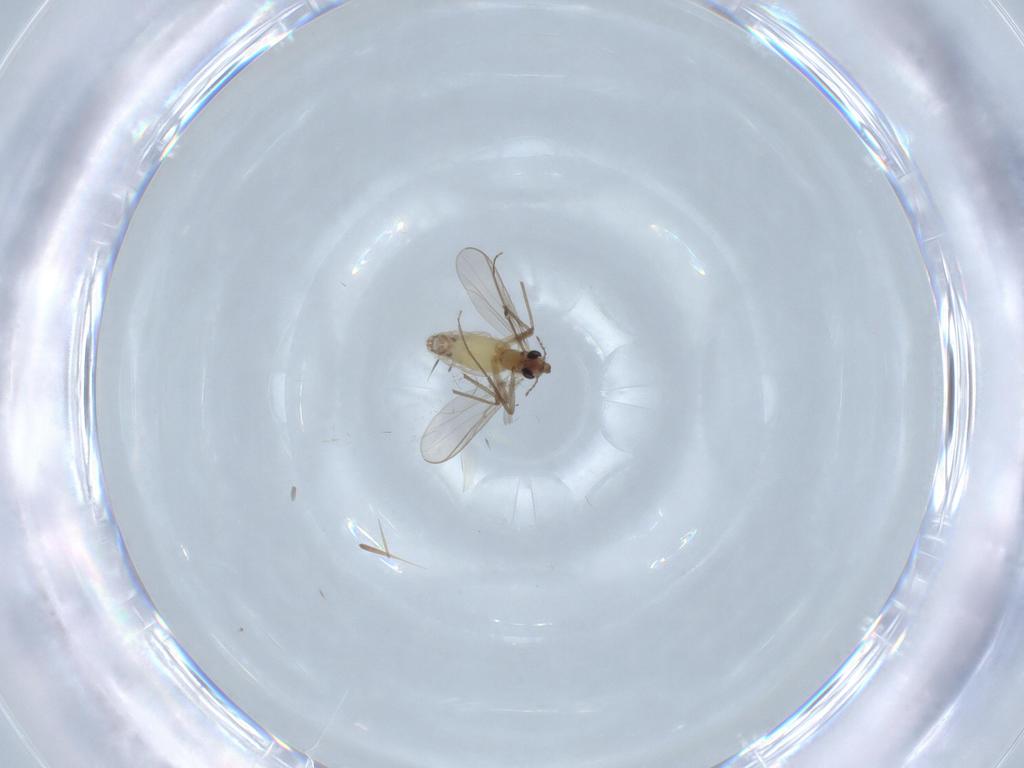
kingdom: Animalia
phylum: Arthropoda
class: Insecta
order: Diptera
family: Chironomidae
